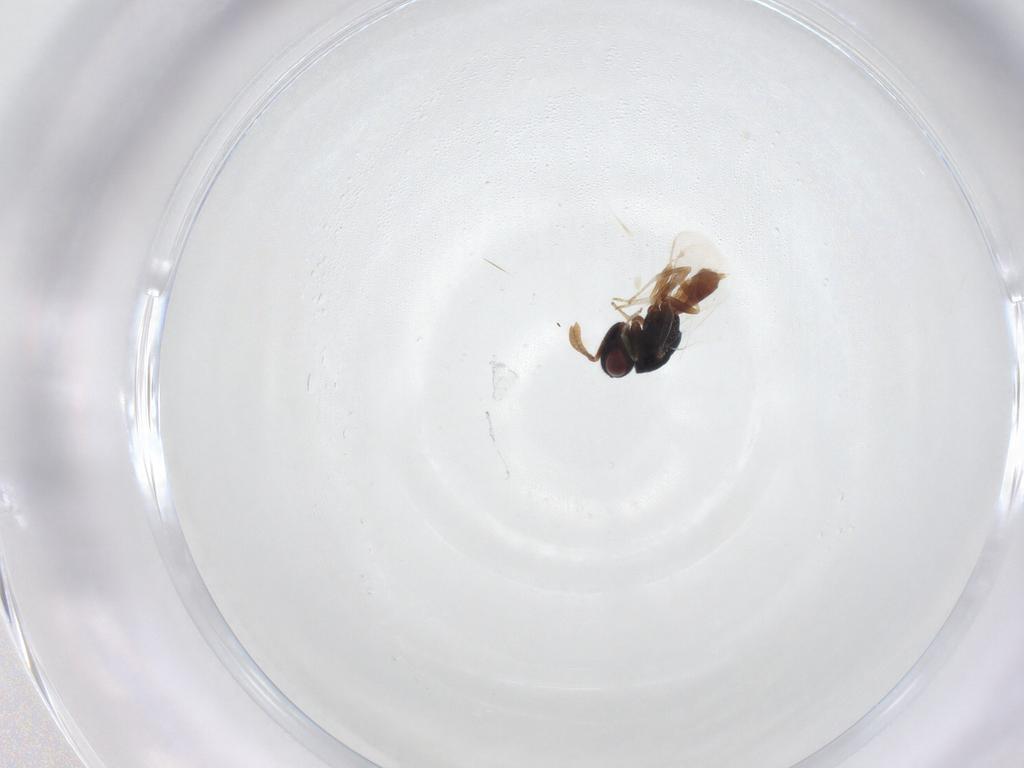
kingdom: Animalia
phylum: Arthropoda
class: Insecta
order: Hymenoptera
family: Pteromalidae
